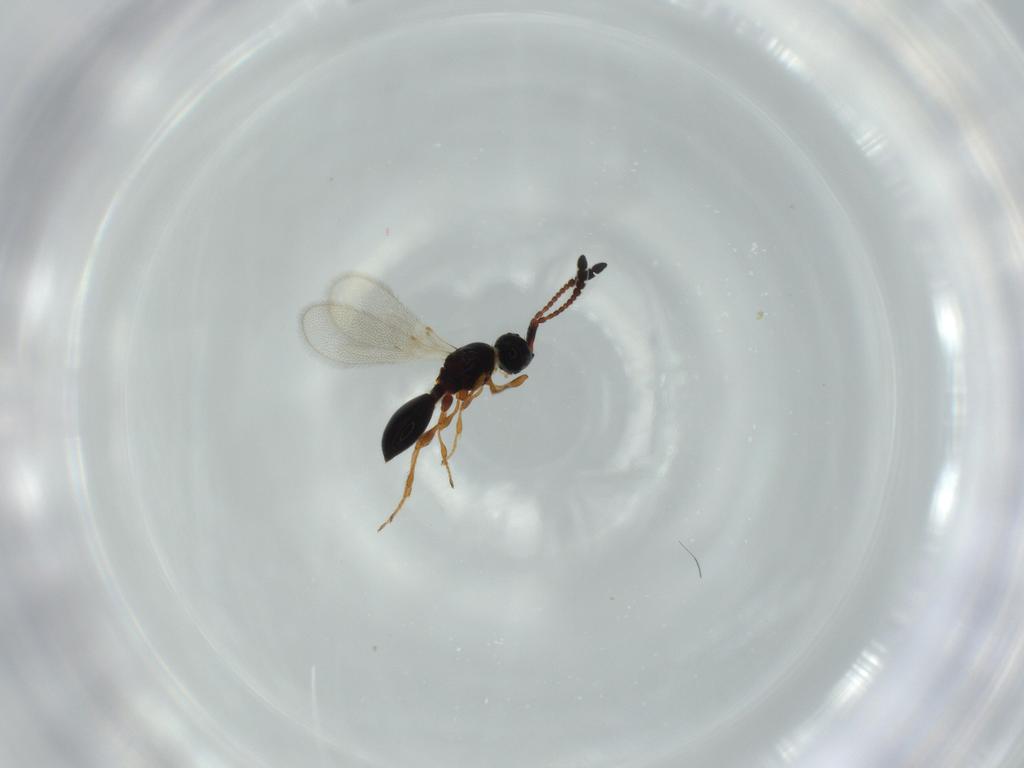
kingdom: Animalia
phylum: Arthropoda
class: Insecta
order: Hymenoptera
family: Diapriidae
